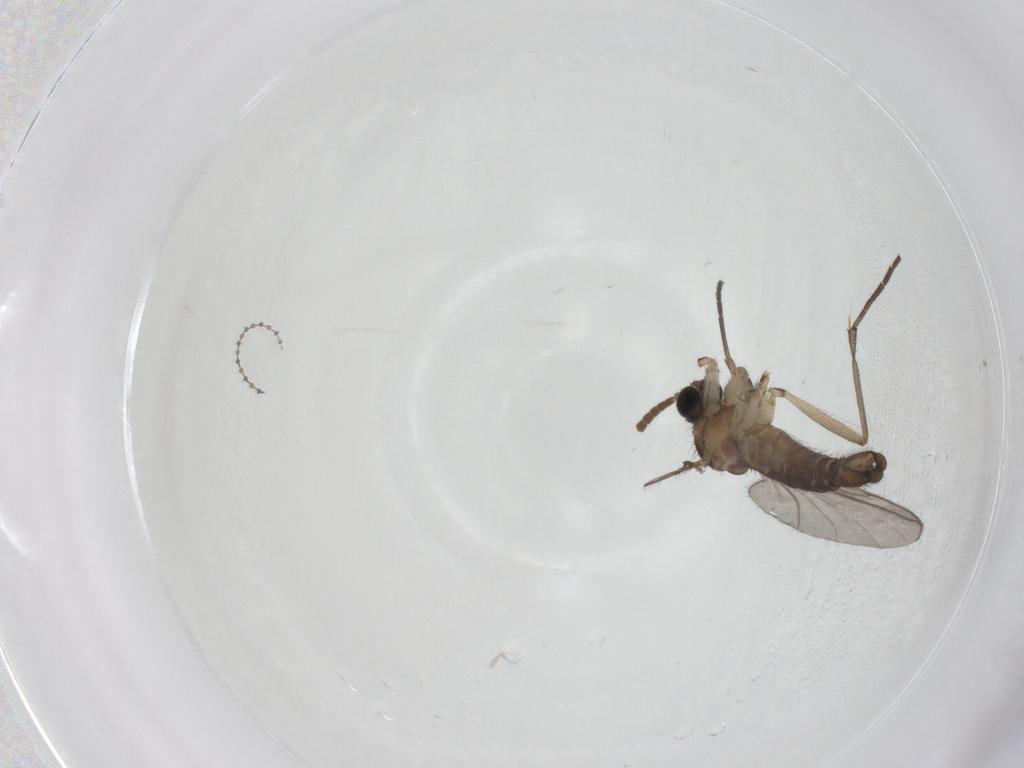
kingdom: Animalia
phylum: Arthropoda
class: Insecta
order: Diptera
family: Cecidomyiidae
